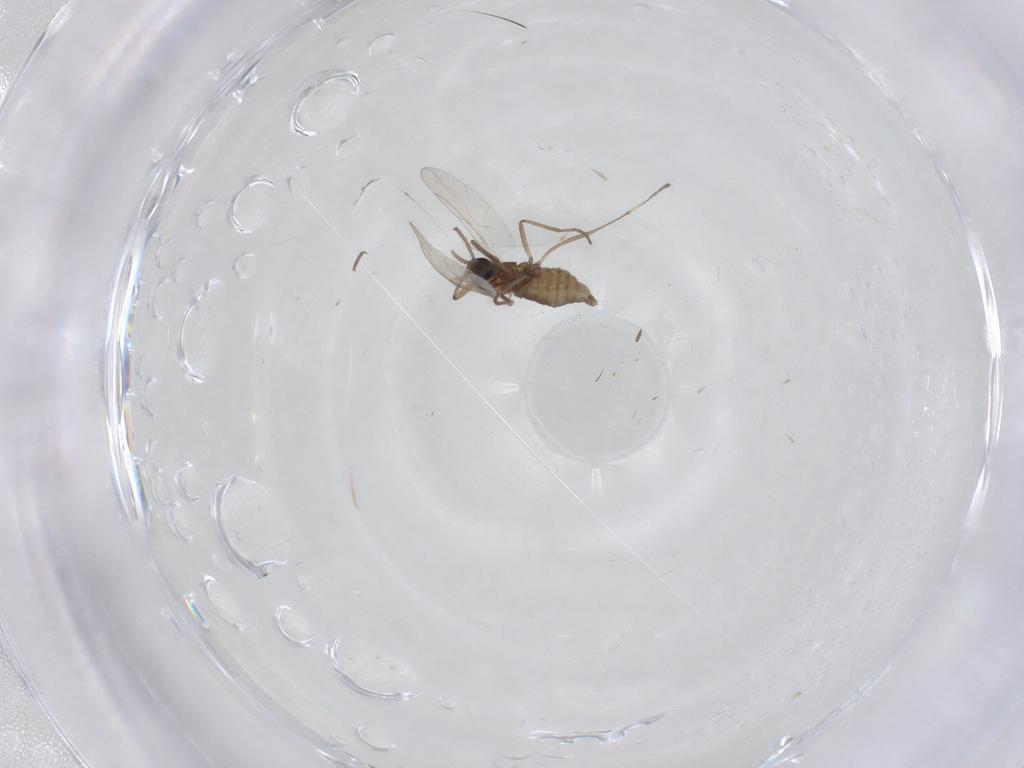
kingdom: Animalia
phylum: Arthropoda
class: Insecta
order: Diptera
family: Cecidomyiidae
